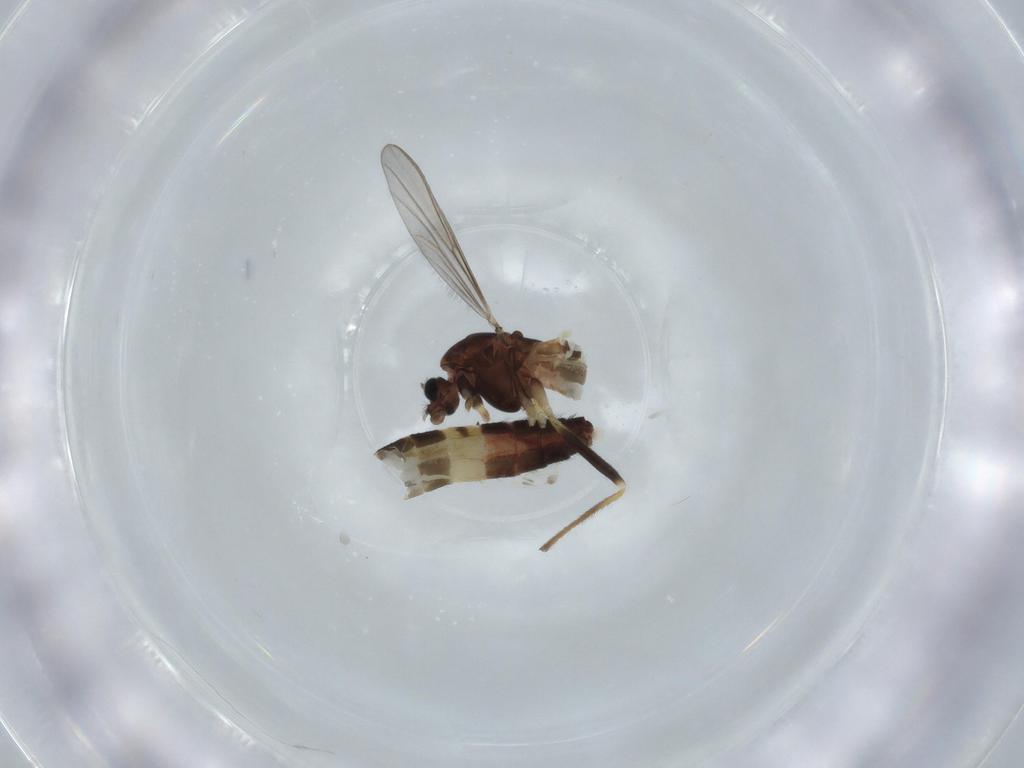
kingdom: Animalia
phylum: Arthropoda
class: Insecta
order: Diptera
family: Chironomidae
